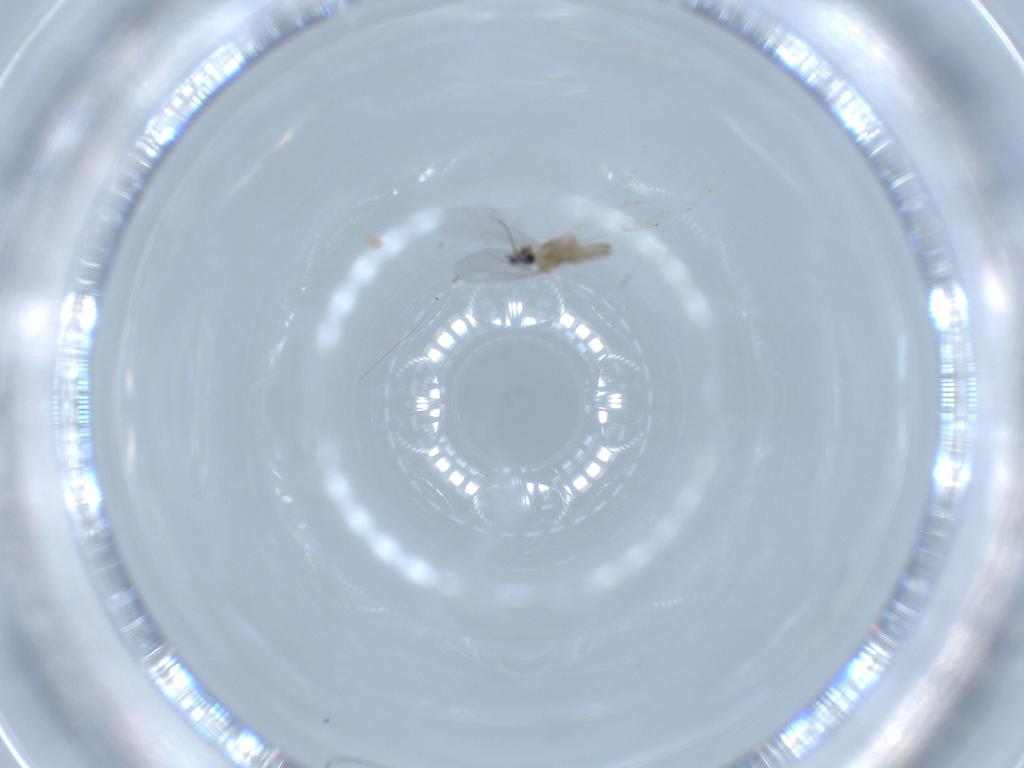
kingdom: Animalia
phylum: Arthropoda
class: Insecta
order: Diptera
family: Cecidomyiidae
